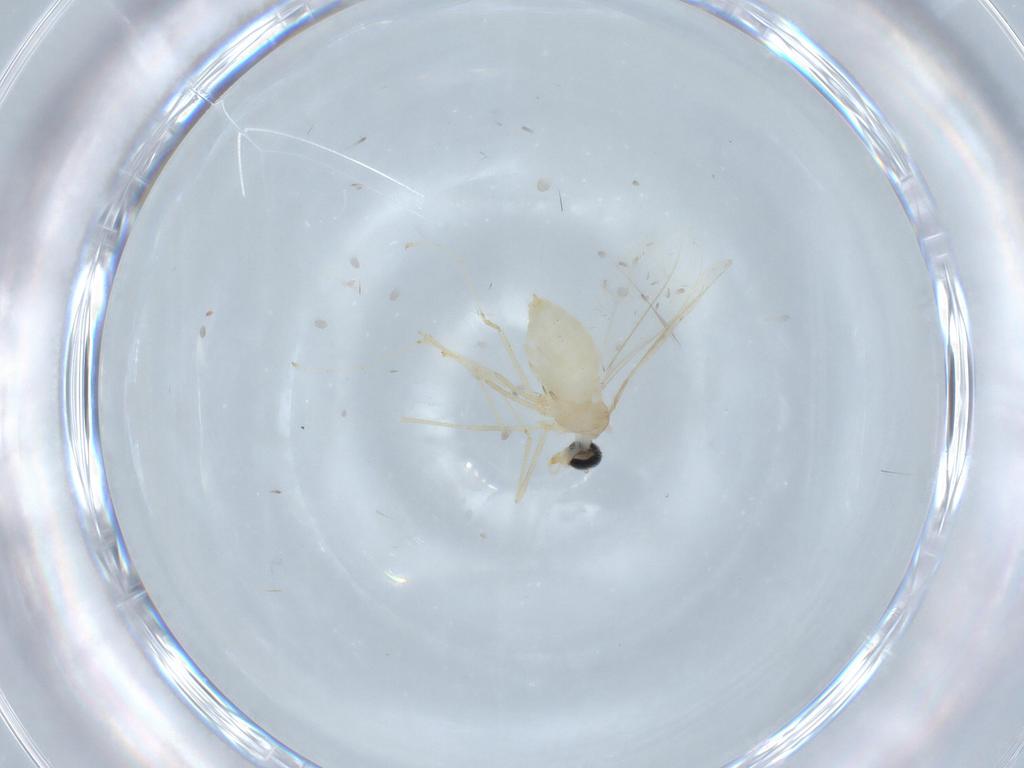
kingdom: Animalia
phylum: Arthropoda
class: Insecta
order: Diptera
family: Cecidomyiidae
